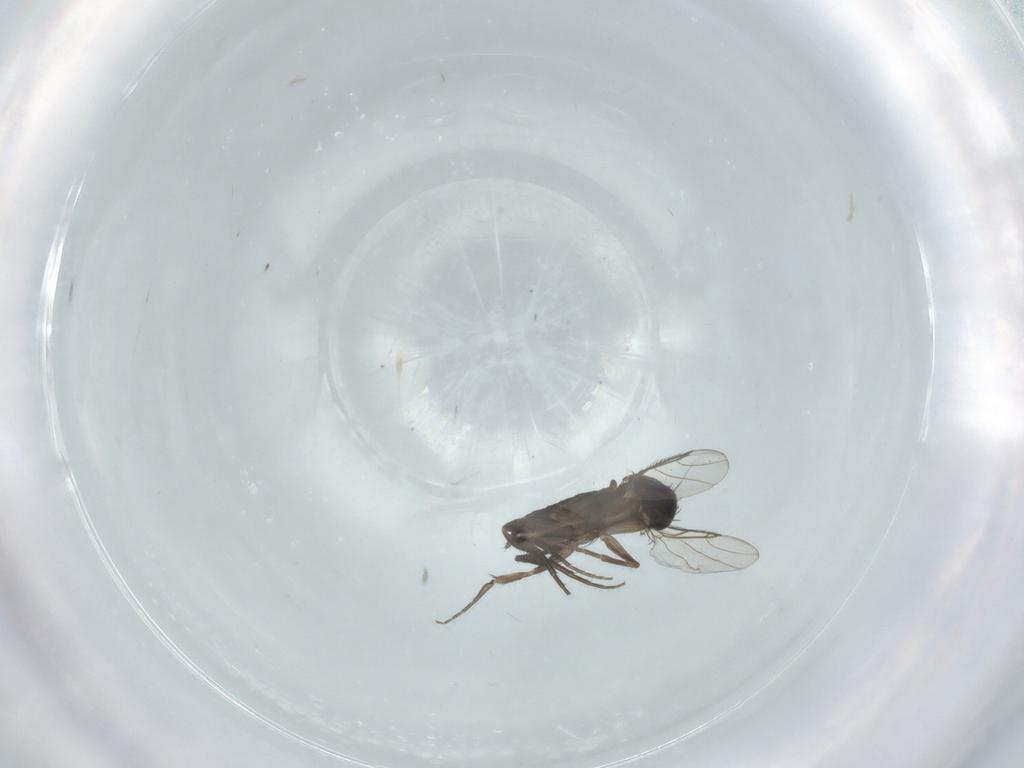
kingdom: Animalia
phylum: Arthropoda
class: Insecta
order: Diptera
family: Phoridae
